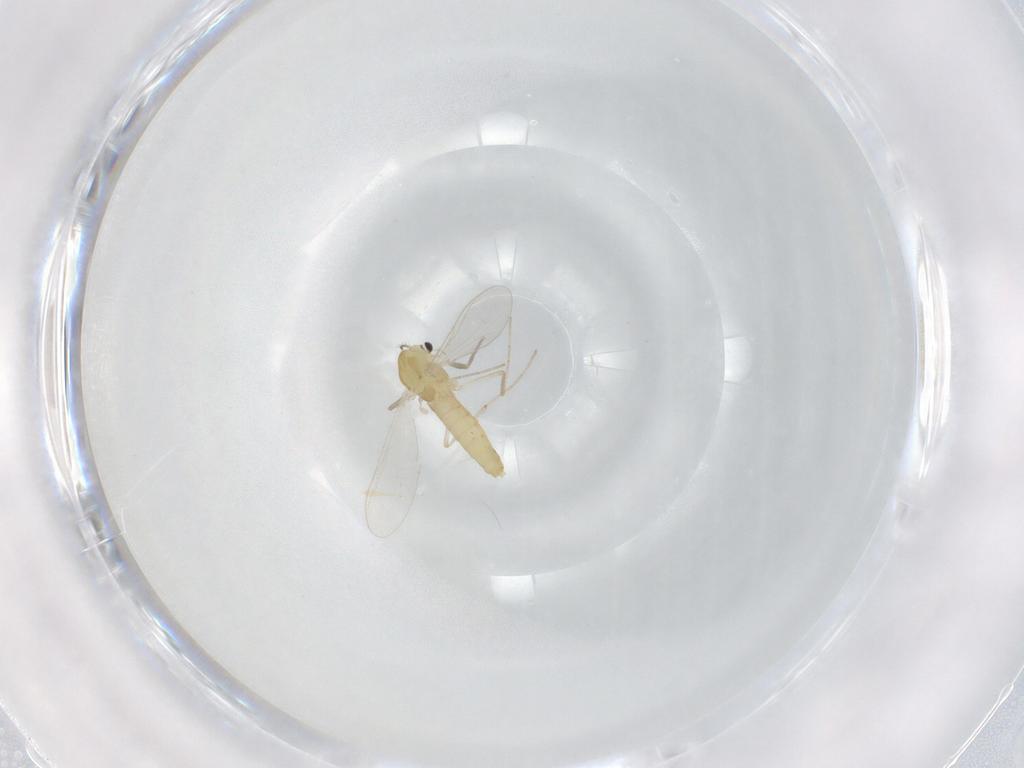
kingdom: Animalia
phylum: Arthropoda
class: Insecta
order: Diptera
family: Chironomidae
